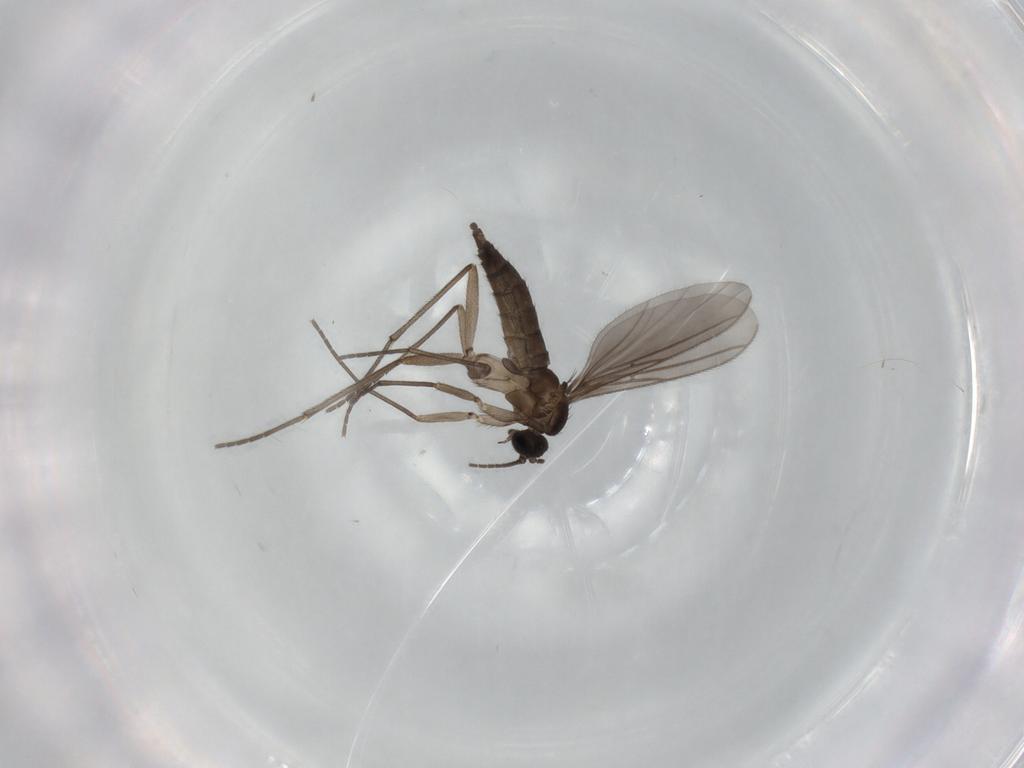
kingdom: Animalia
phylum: Arthropoda
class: Insecta
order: Diptera
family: Sciaridae
